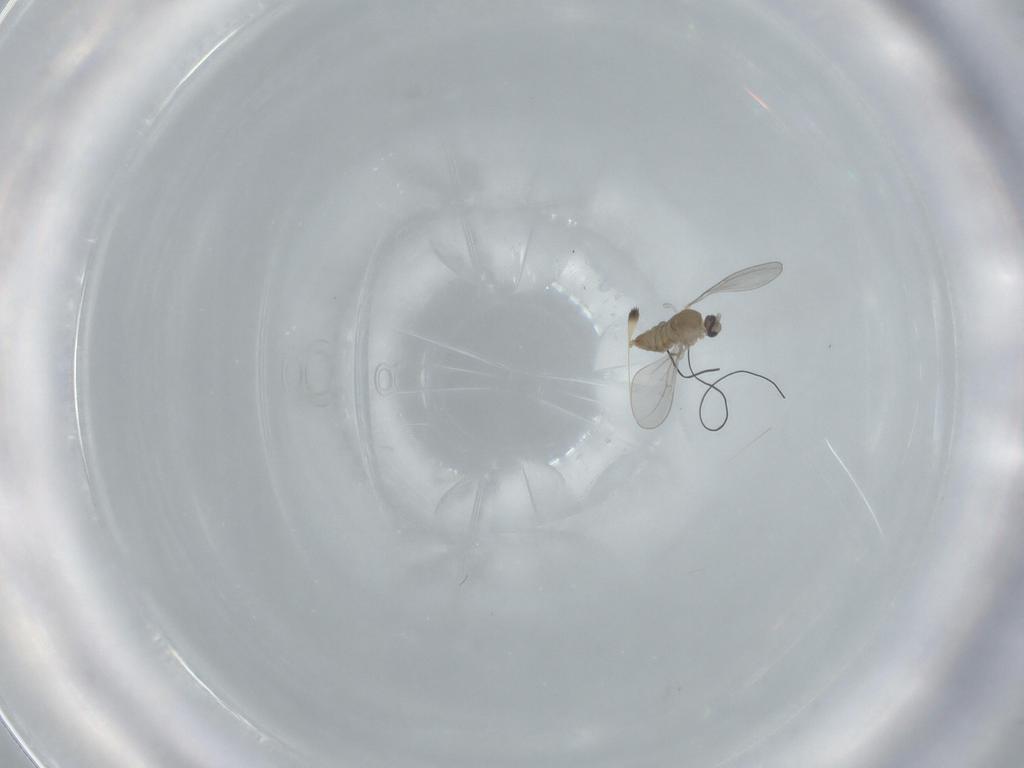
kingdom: Animalia
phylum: Arthropoda
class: Insecta
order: Diptera
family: Cecidomyiidae
